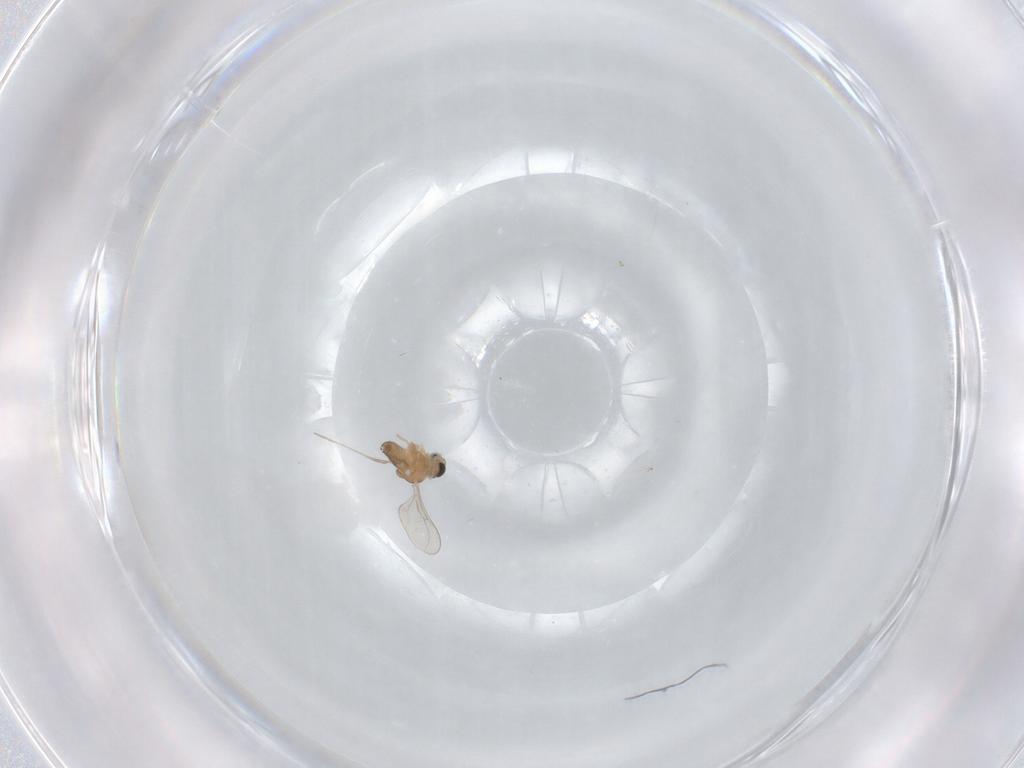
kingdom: Animalia
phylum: Arthropoda
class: Insecta
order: Diptera
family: Cecidomyiidae
